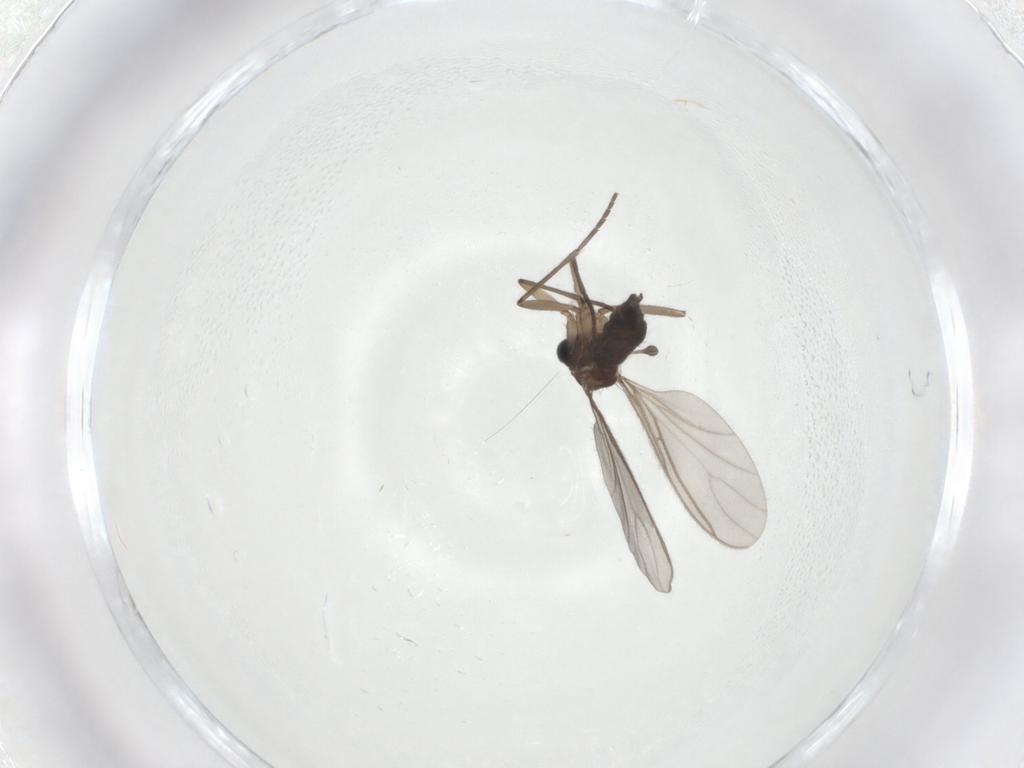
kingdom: Animalia
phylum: Arthropoda
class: Insecta
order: Diptera
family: Sciaridae
